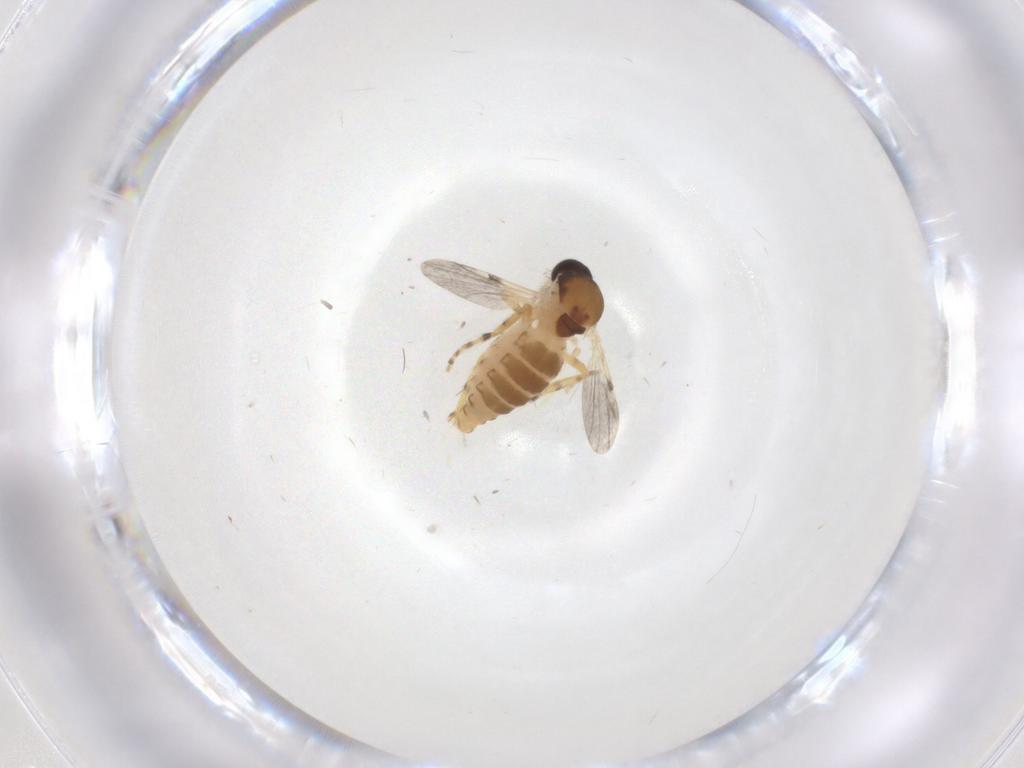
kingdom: Animalia
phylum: Arthropoda
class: Insecta
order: Diptera
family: Ceratopogonidae
